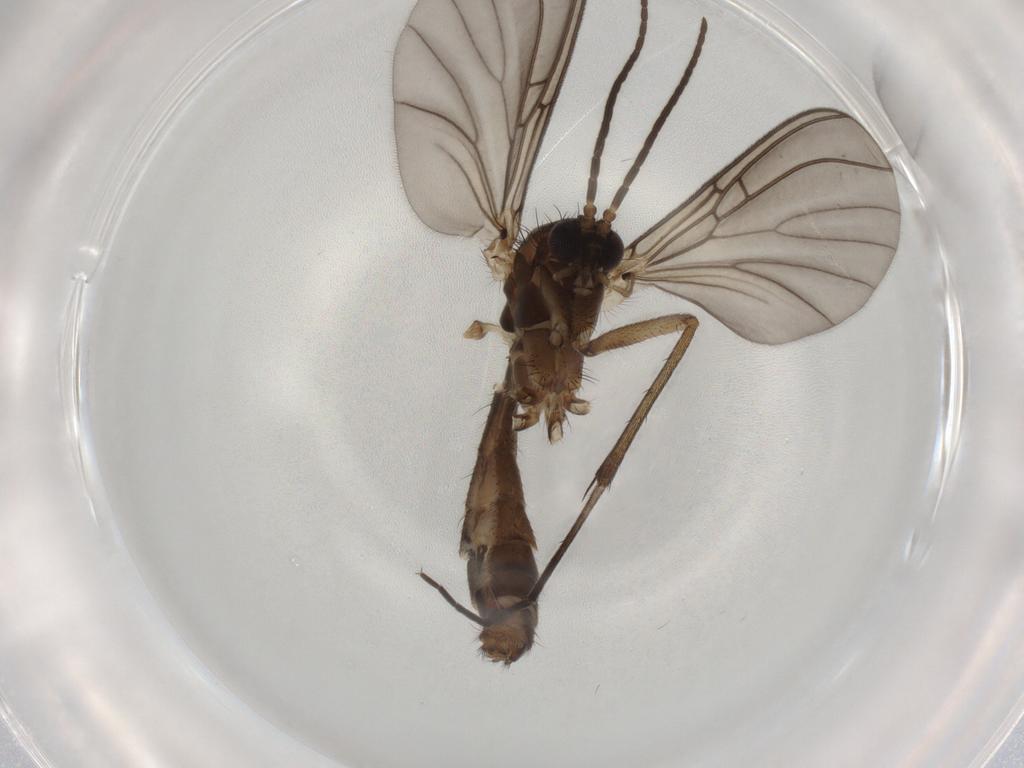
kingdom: Animalia
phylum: Arthropoda
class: Insecta
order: Diptera
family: Mycetophilidae
